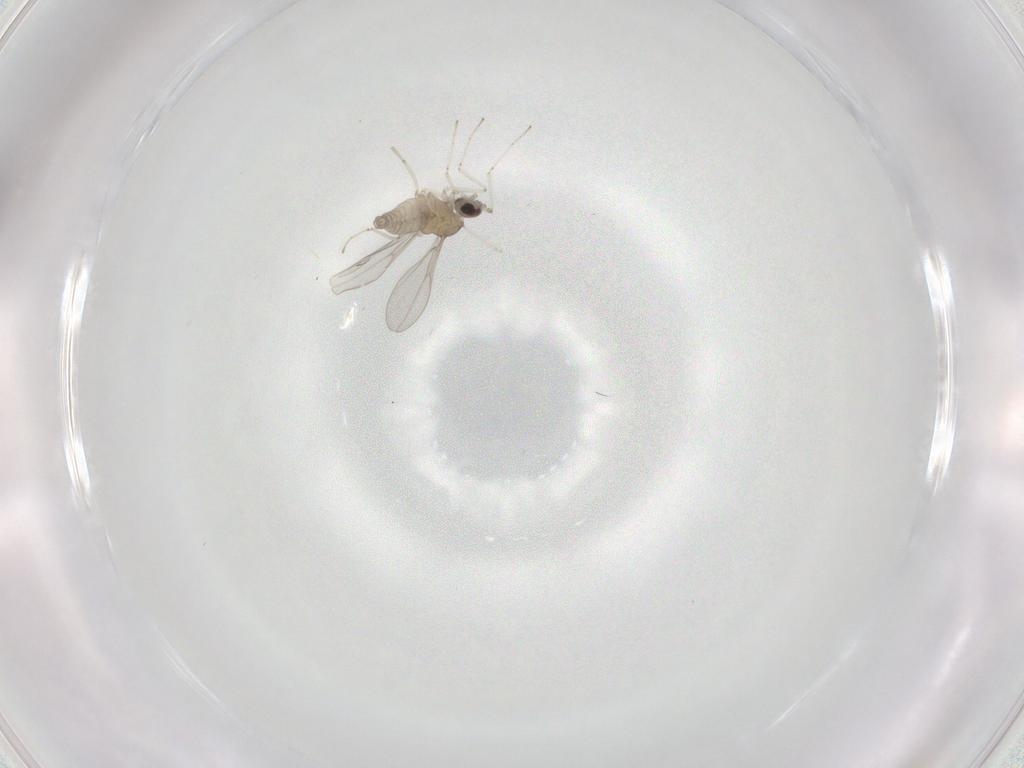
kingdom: Animalia
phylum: Arthropoda
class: Insecta
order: Diptera
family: Cecidomyiidae
